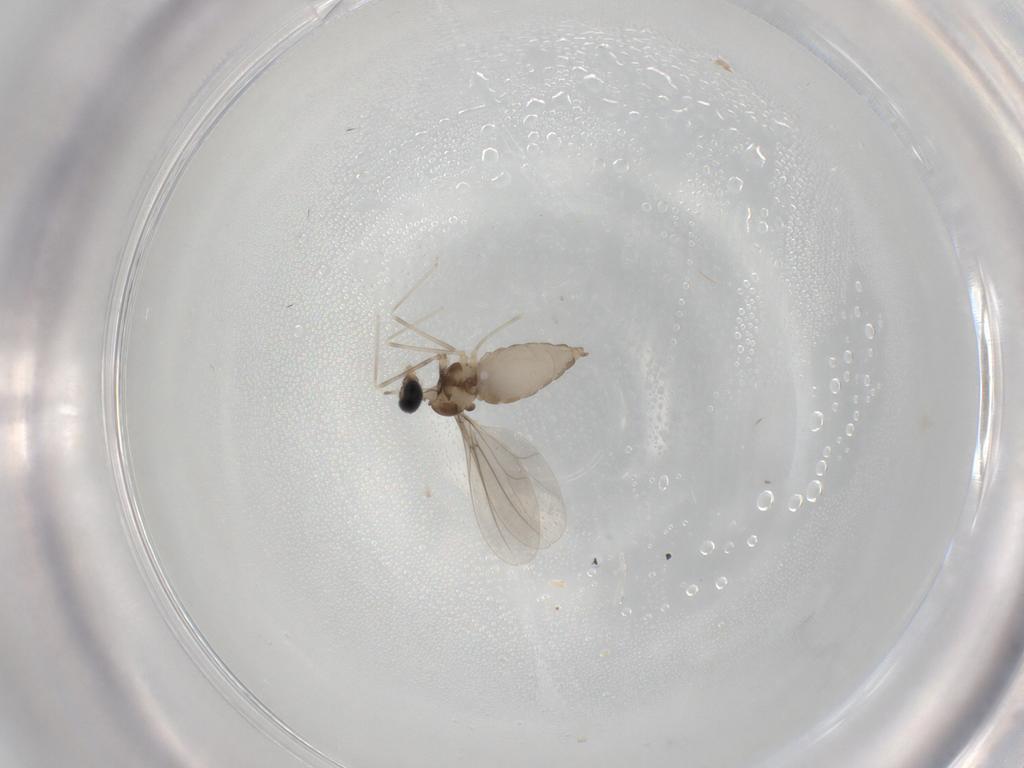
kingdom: Animalia
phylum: Arthropoda
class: Insecta
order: Diptera
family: Cecidomyiidae
